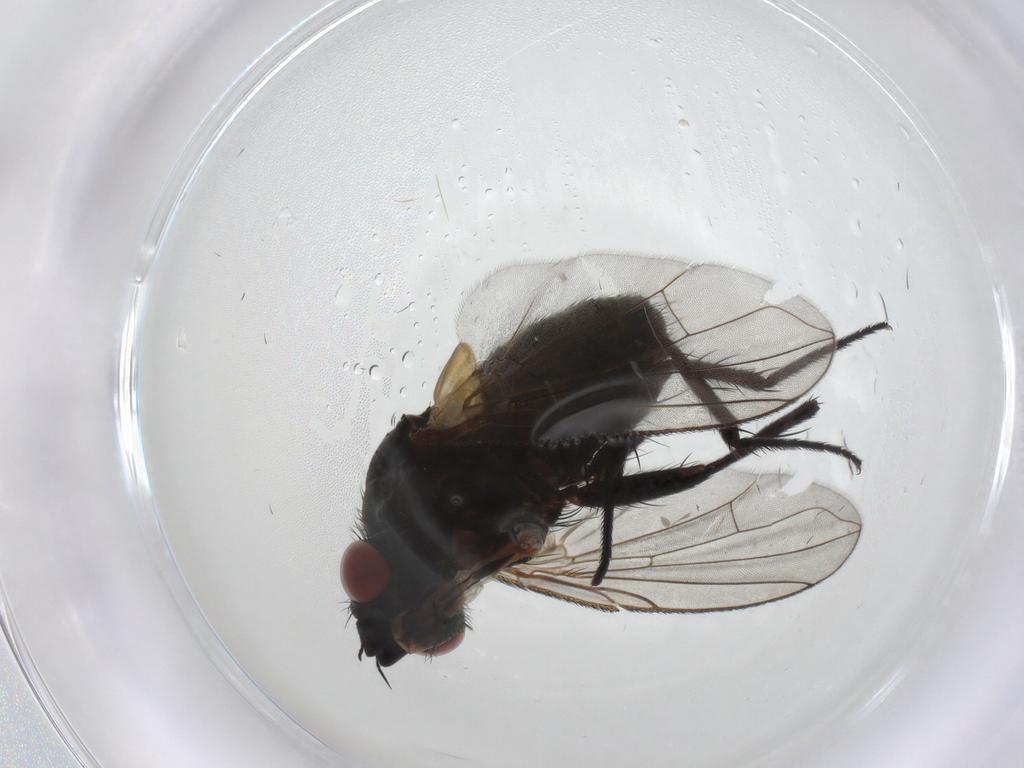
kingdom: Animalia
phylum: Arthropoda
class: Insecta
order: Diptera
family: Tachinidae
